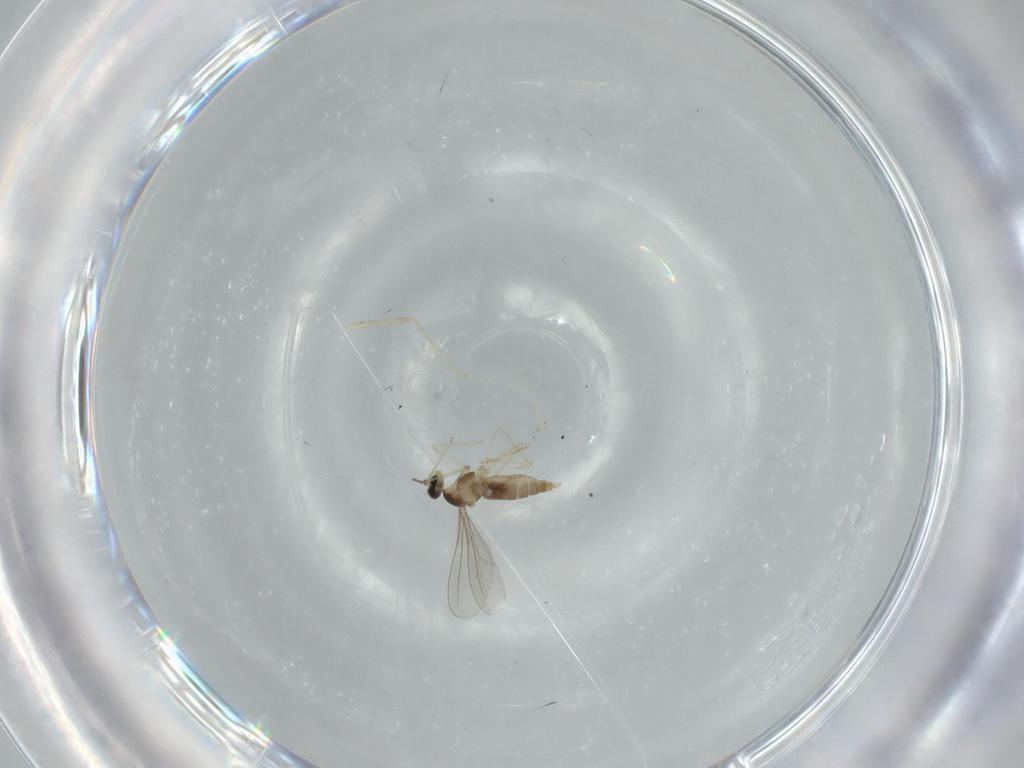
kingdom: Animalia
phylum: Arthropoda
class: Insecta
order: Diptera
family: Cecidomyiidae
